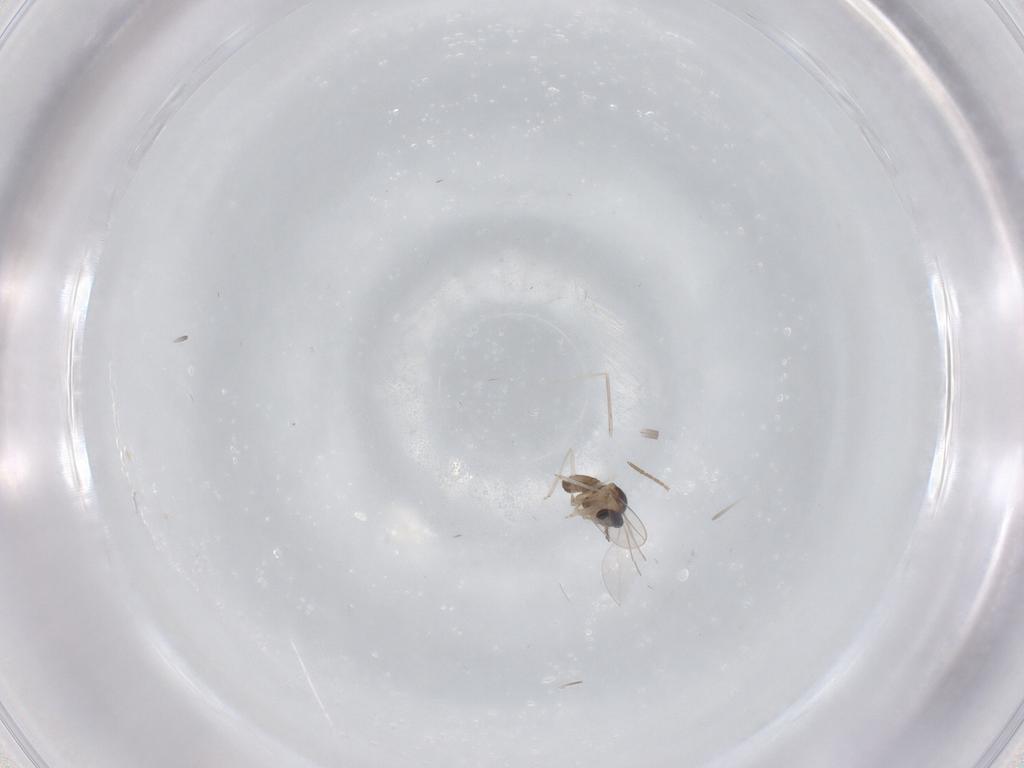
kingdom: Animalia
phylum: Arthropoda
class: Insecta
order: Diptera
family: Cecidomyiidae
